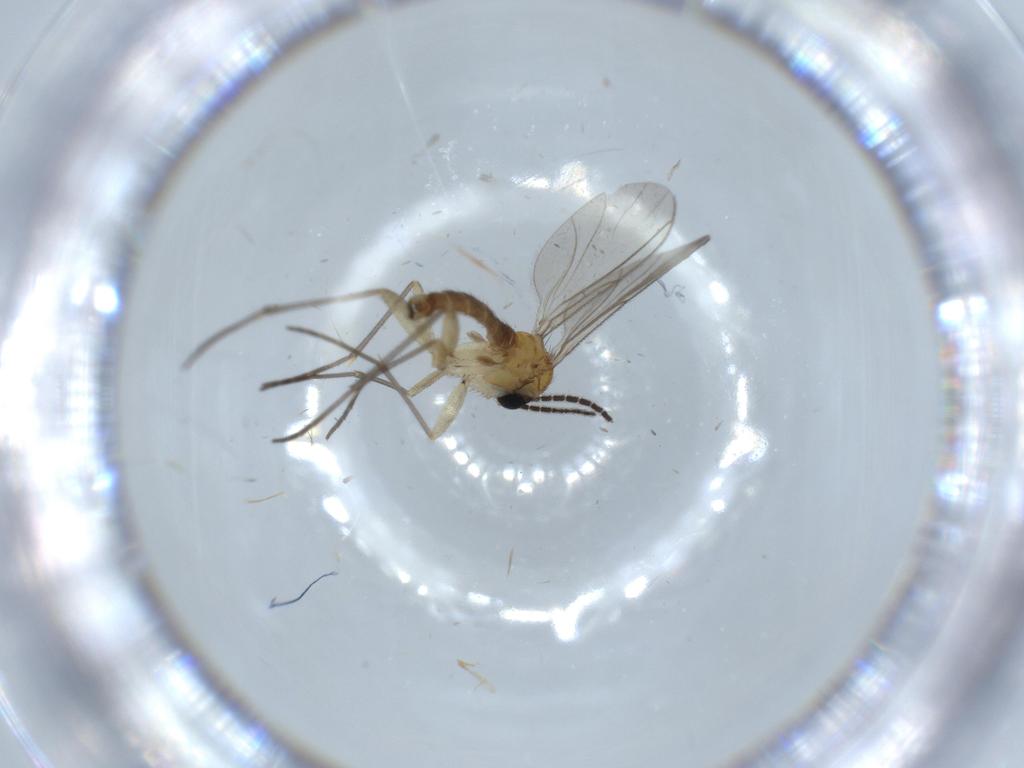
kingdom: Animalia
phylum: Arthropoda
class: Insecta
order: Diptera
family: Sciaridae
